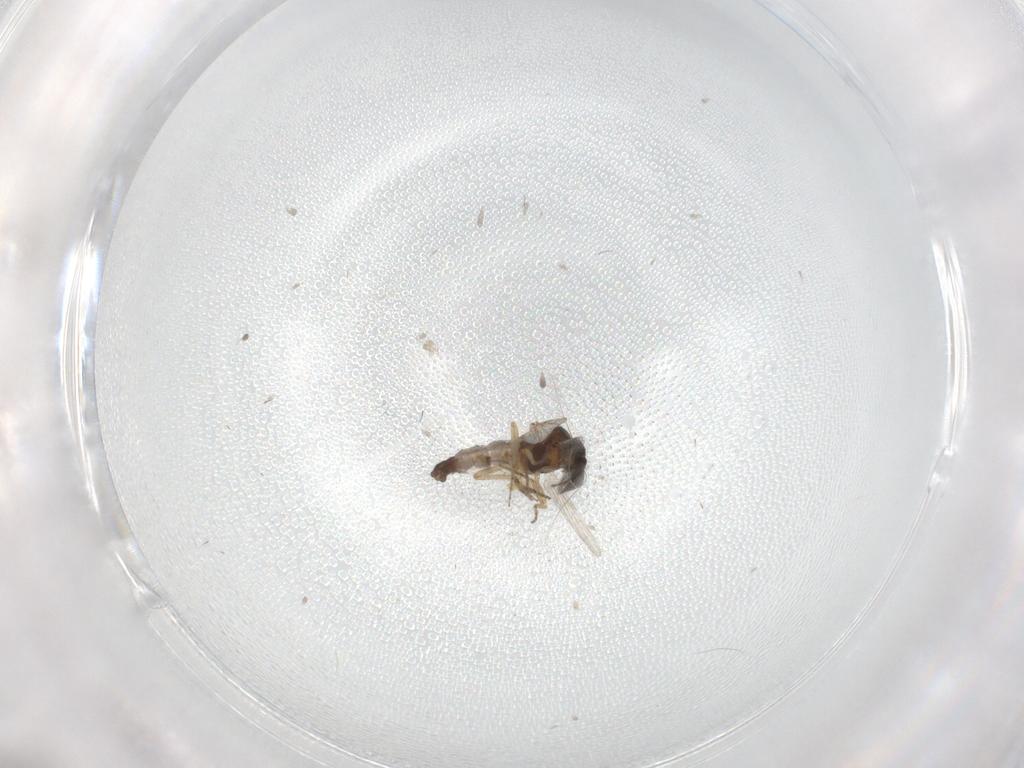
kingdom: Animalia
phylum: Arthropoda
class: Insecta
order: Diptera
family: Ceratopogonidae
